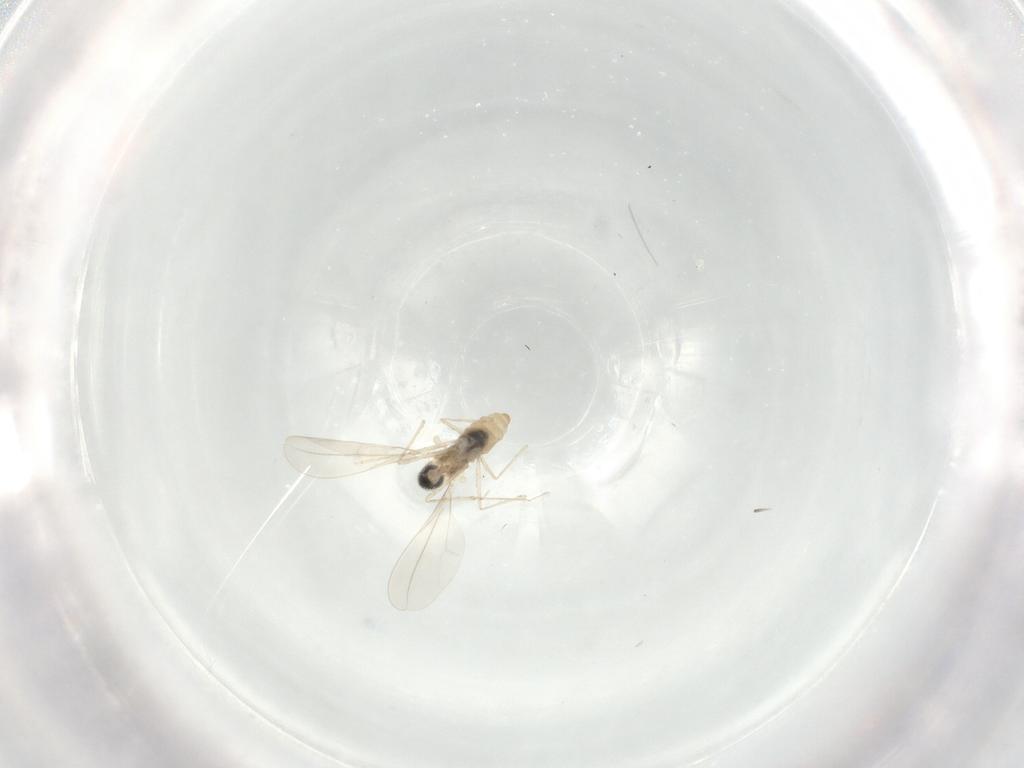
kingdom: Animalia
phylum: Arthropoda
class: Insecta
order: Diptera
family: Cecidomyiidae
